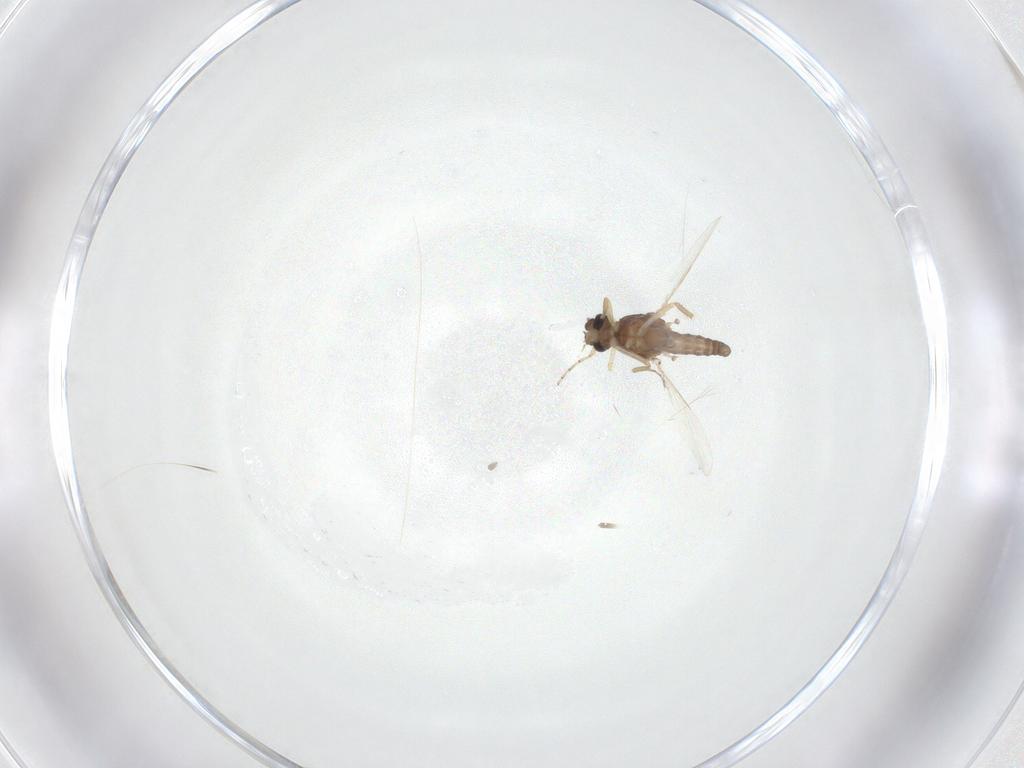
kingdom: Animalia
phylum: Arthropoda
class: Insecta
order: Diptera
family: Ceratopogonidae
